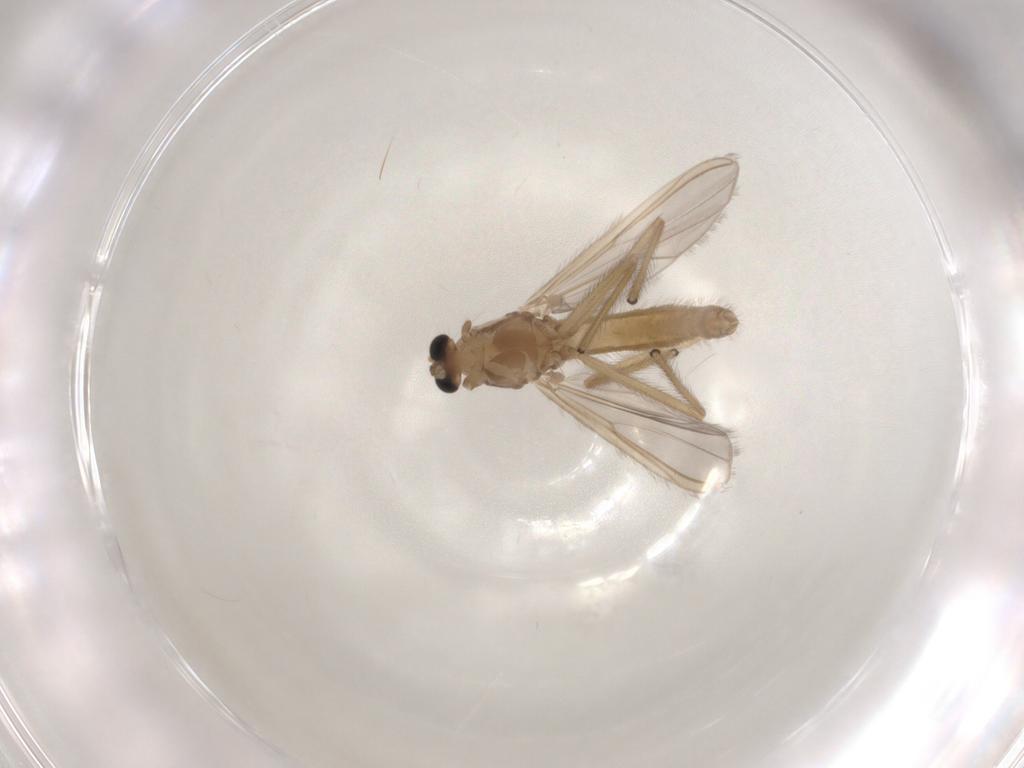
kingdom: Animalia
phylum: Arthropoda
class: Insecta
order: Diptera
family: Chironomidae
